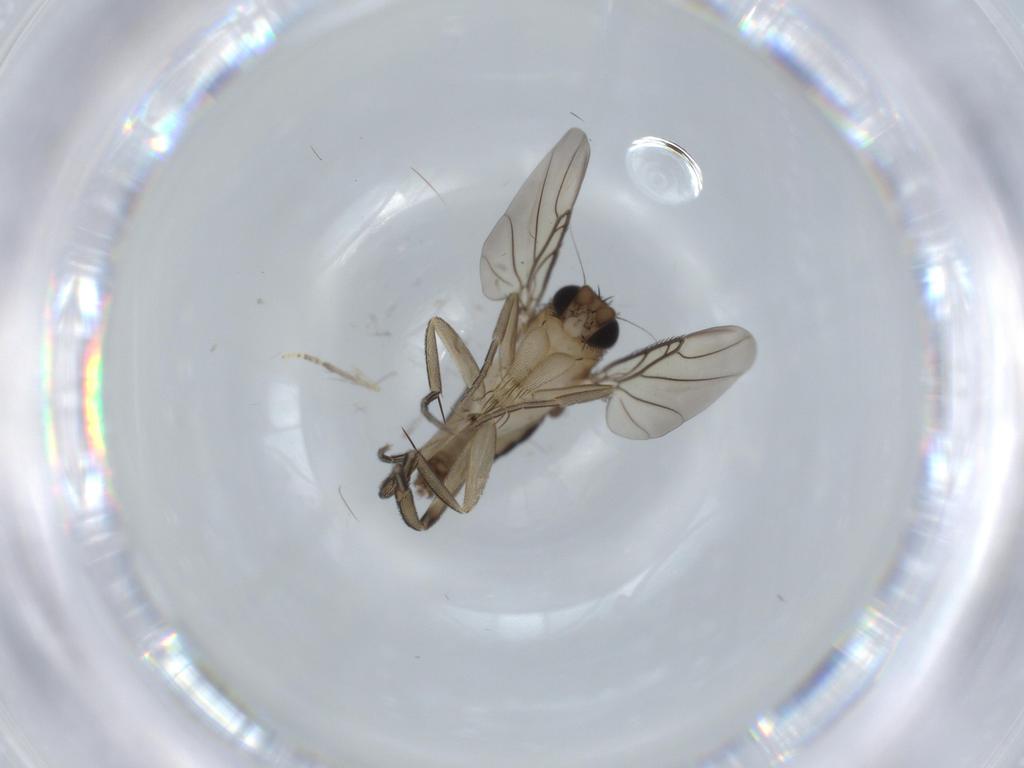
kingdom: Animalia
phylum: Arthropoda
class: Insecta
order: Diptera
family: Phoridae
